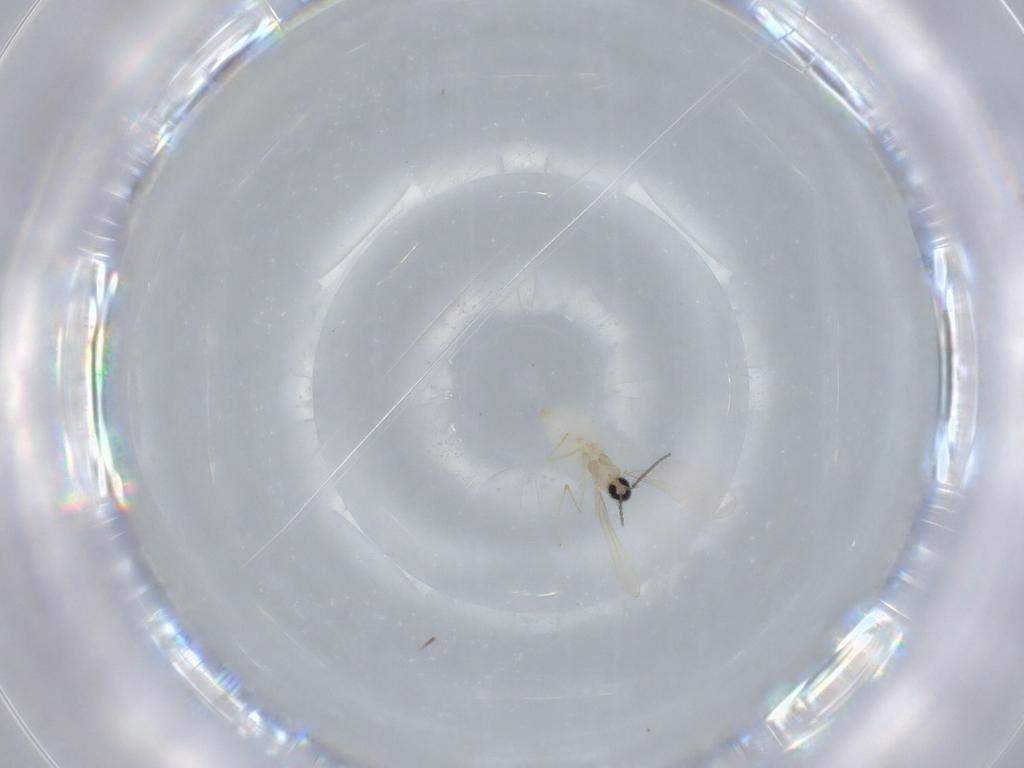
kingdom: Animalia
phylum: Arthropoda
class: Insecta
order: Diptera
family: Cecidomyiidae
